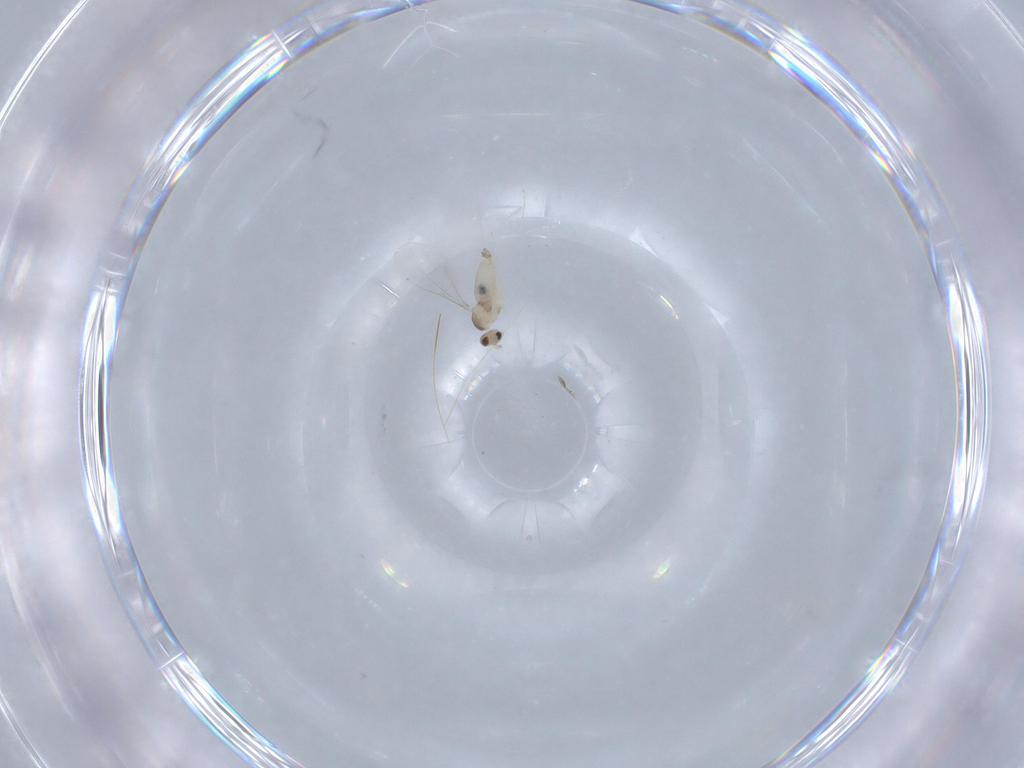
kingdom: Animalia
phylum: Arthropoda
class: Insecta
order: Diptera
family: Cecidomyiidae
